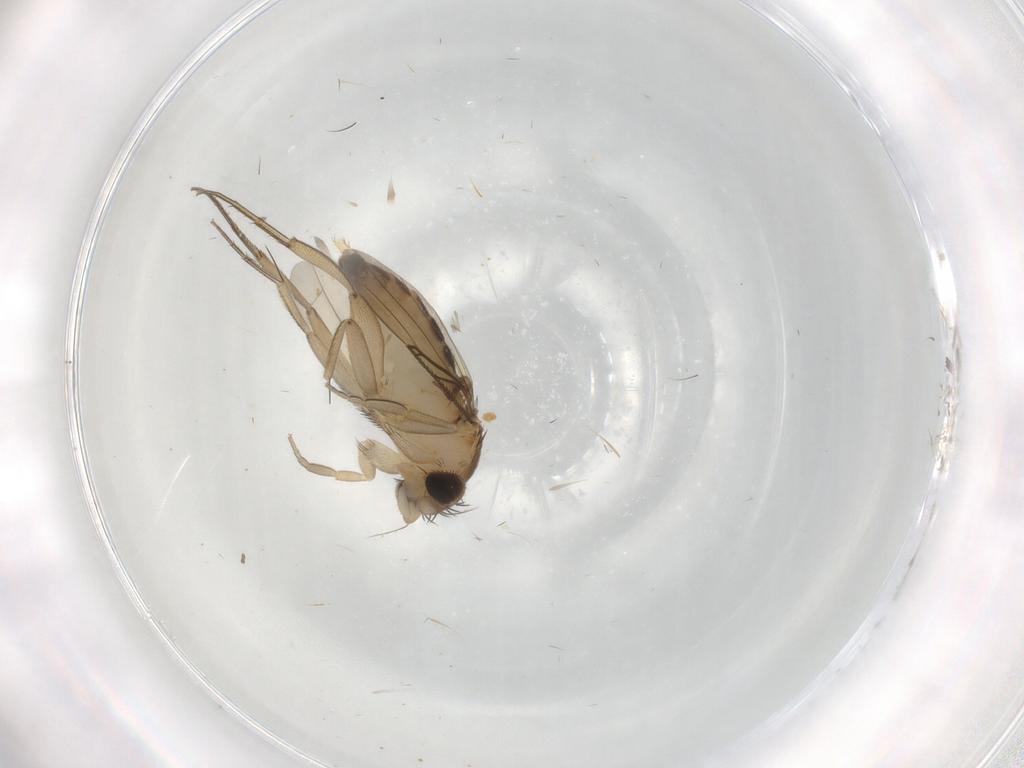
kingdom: Animalia
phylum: Arthropoda
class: Insecta
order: Diptera
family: Phoridae
